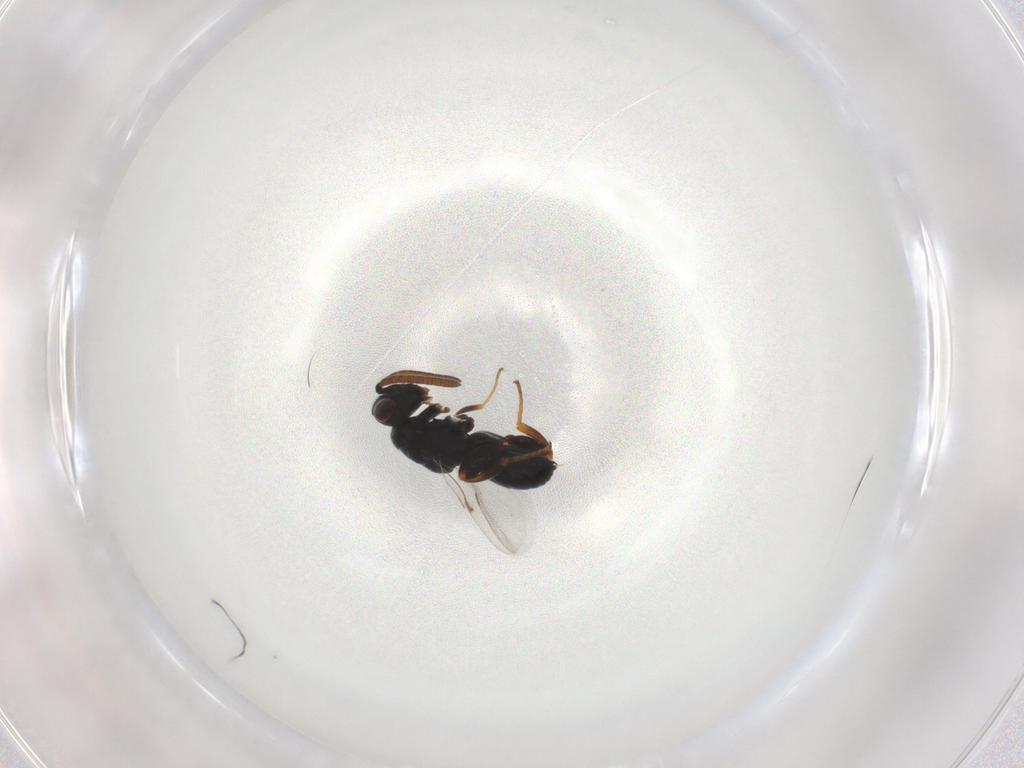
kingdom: Animalia
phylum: Arthropoda
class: Insecta
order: Hymenoptera
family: Chalcididae
